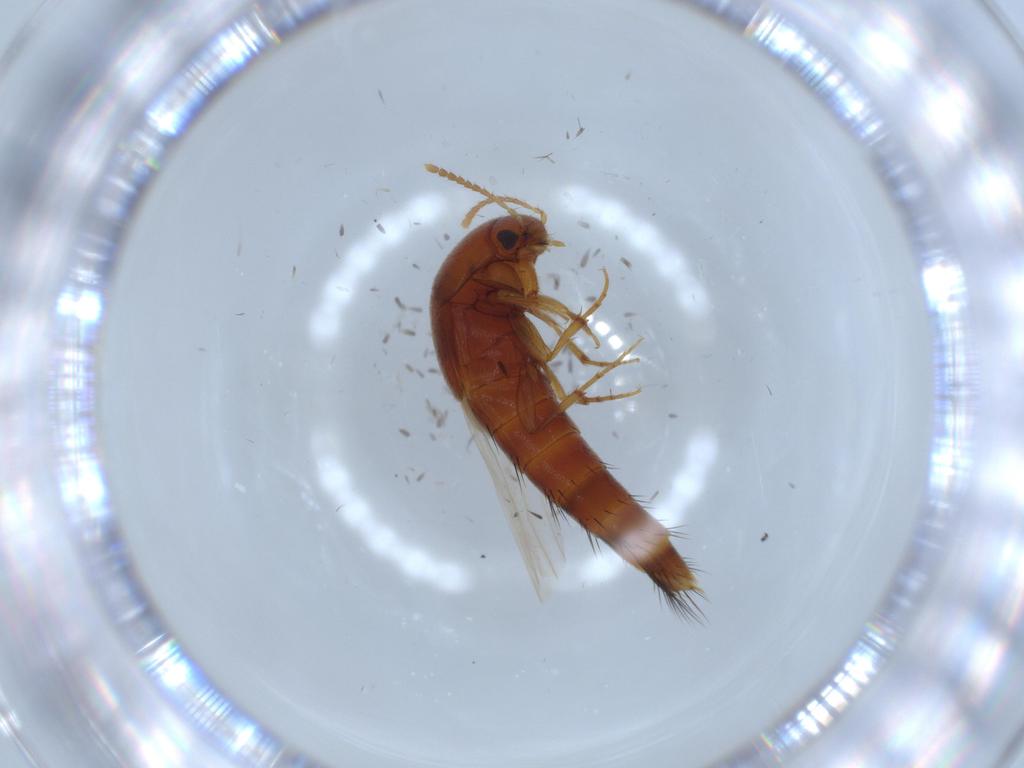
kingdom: Animalia
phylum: Arthropoda
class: Insecta
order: Coleoptera
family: Staphylinidae
